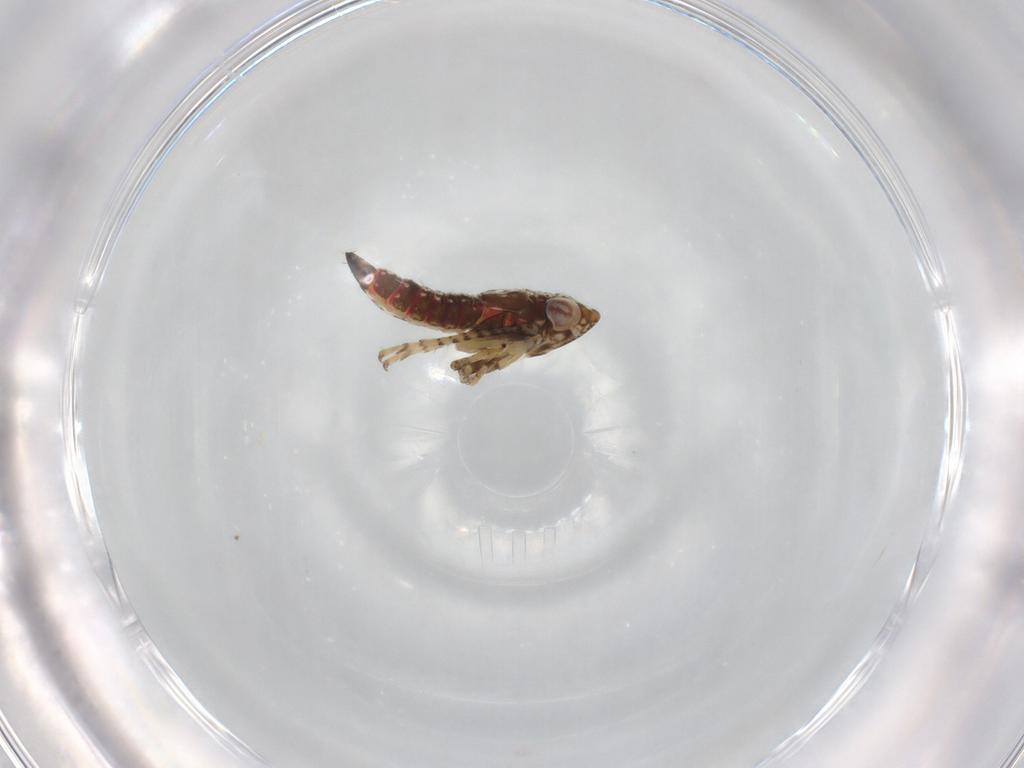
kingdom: Animalia
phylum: Arthropoda
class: Insecta
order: Hemiptera
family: Cicadellidae
